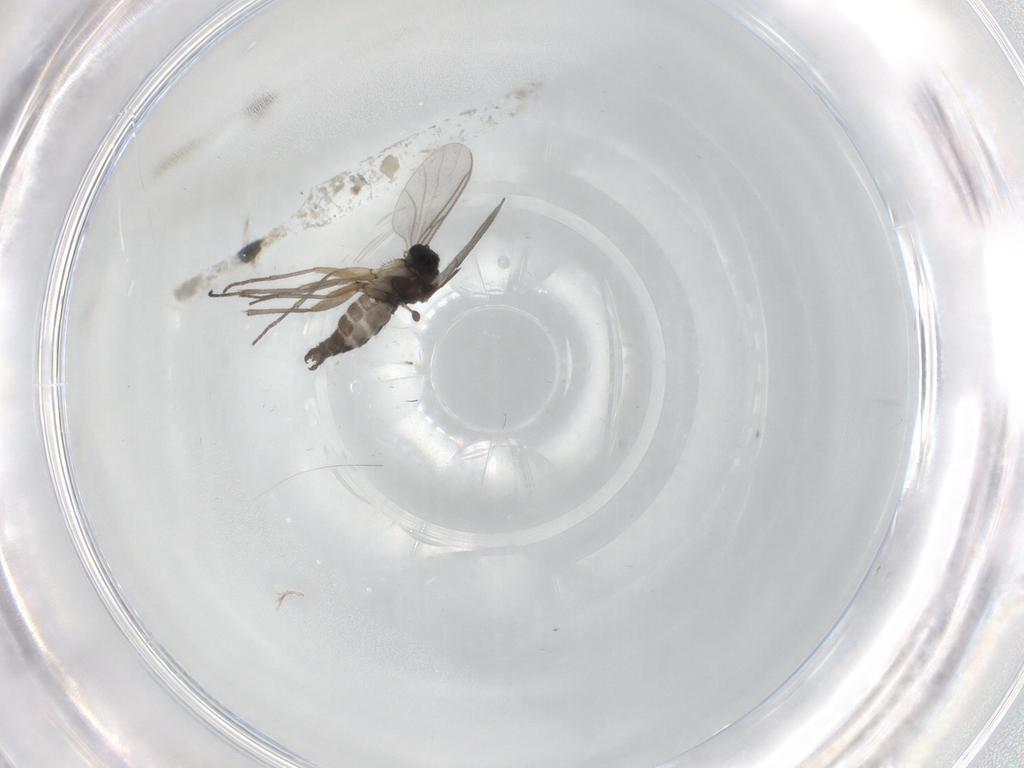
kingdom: Animalia
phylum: Arthropoda
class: Insecta
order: Diptera
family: Sciaridae
